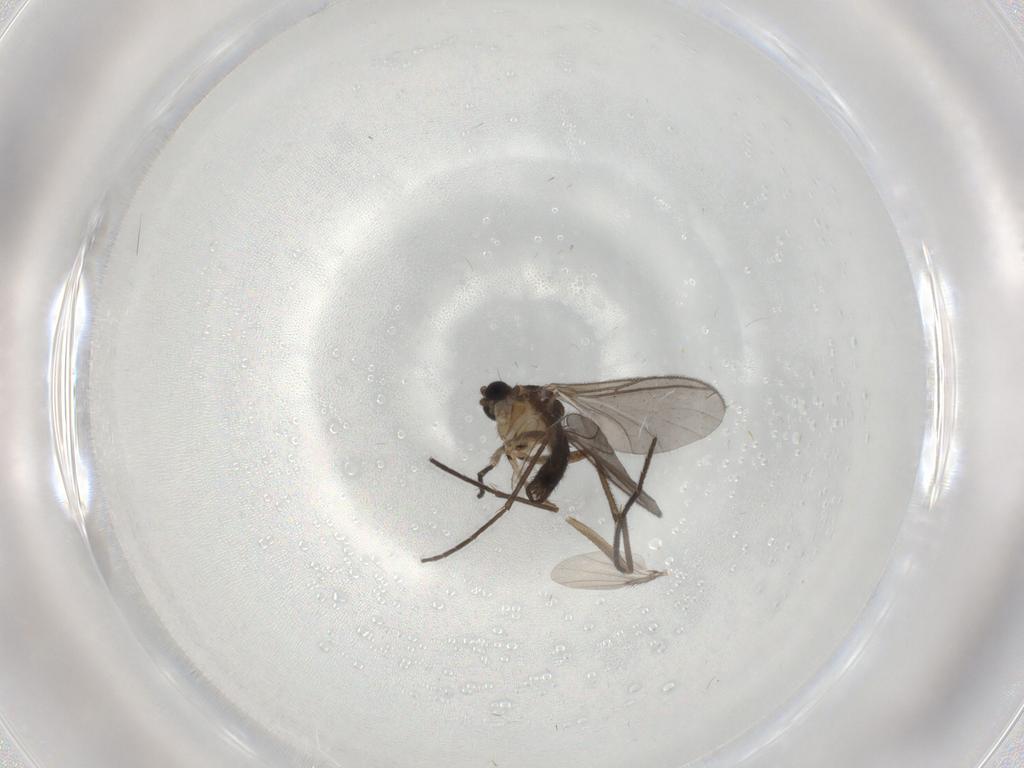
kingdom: Animalia
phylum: Arthropoda
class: Insecta
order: Diptera
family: Sciaridae
